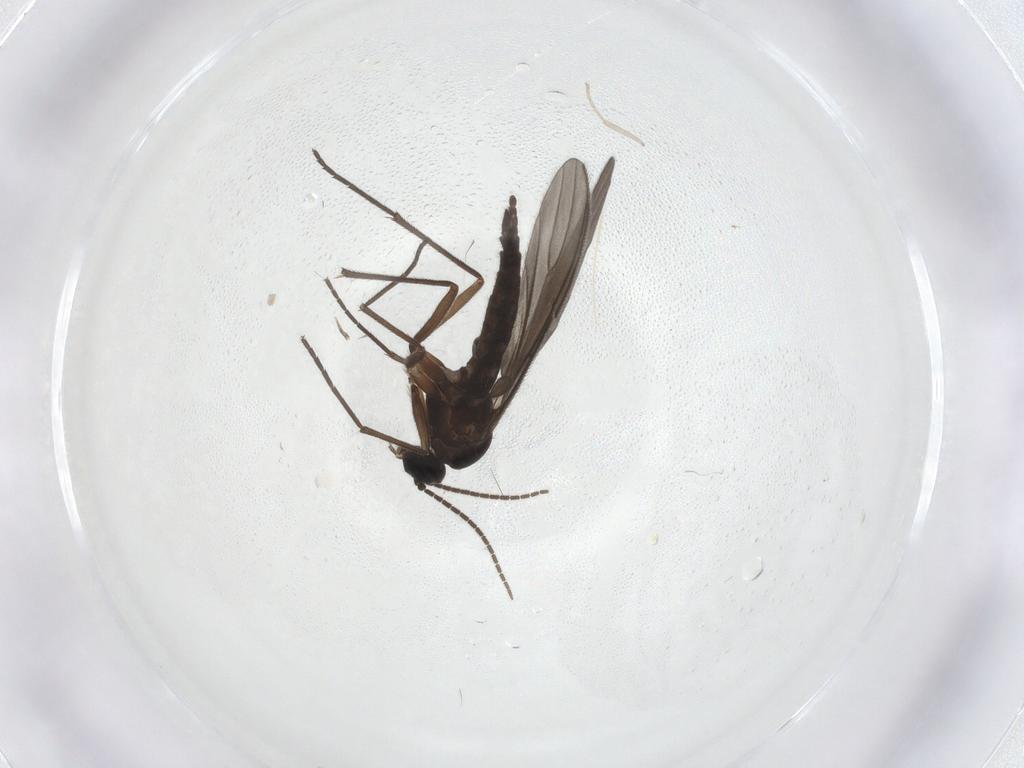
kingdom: Animalia
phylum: Arthropoda
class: Insecta
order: Diptera
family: Sciaridae
